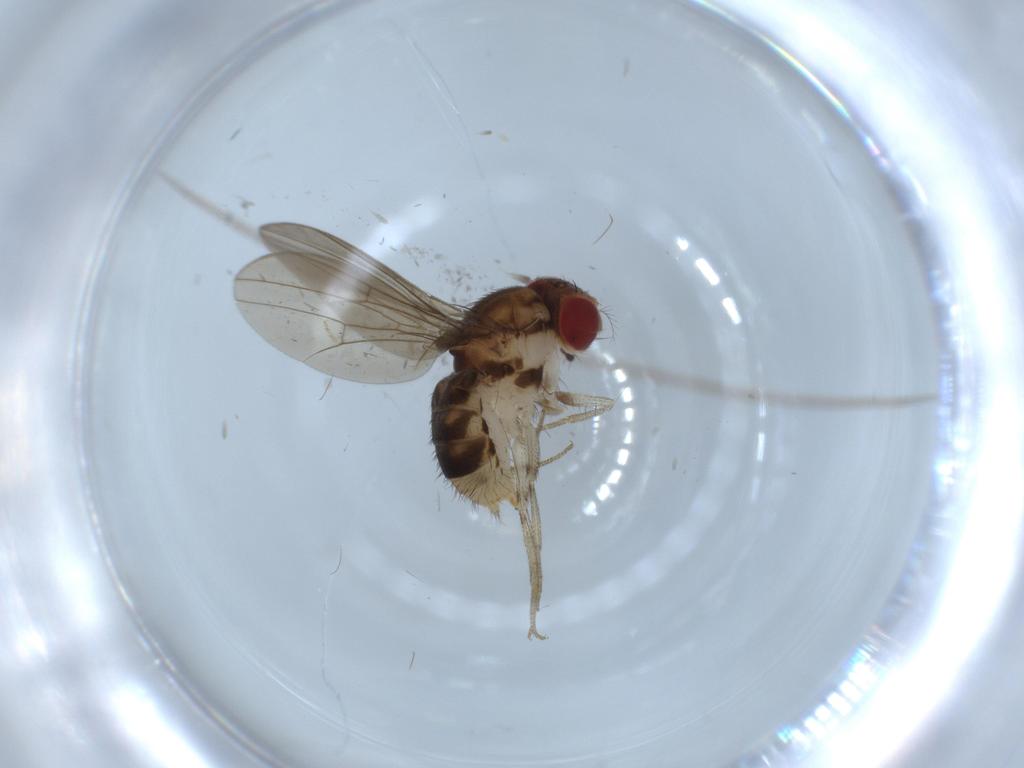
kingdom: Animalia
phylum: Arthropoda
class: Insecta
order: Diptera
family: Drosophilidae
